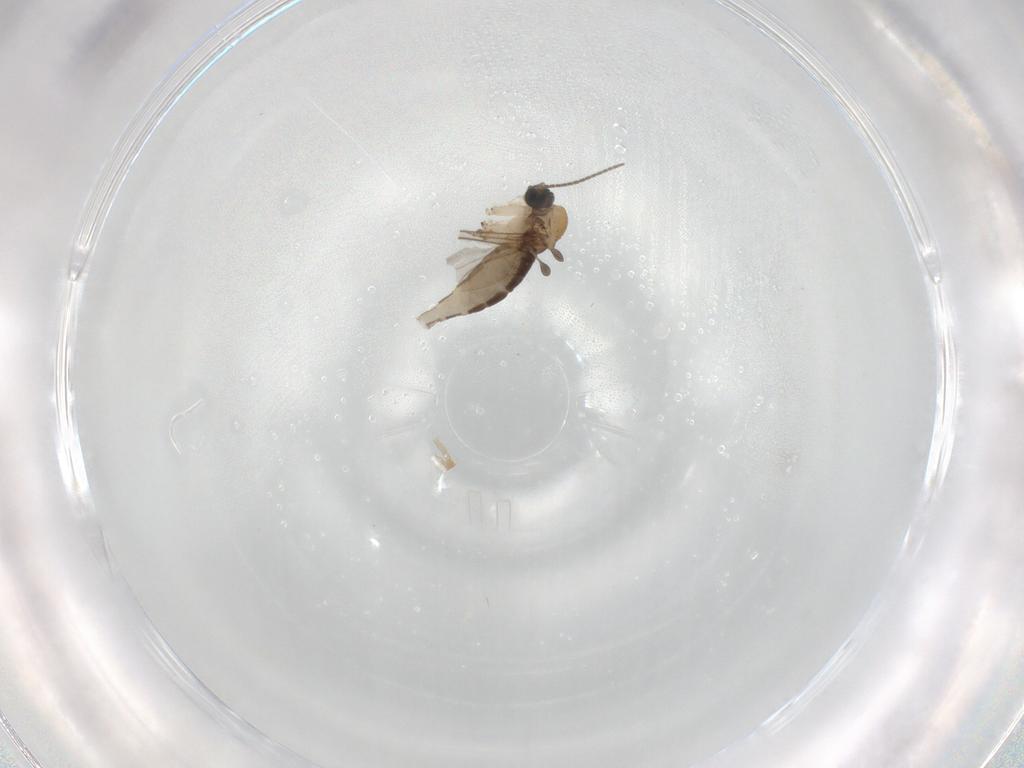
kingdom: Animalia
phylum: Arthropoda
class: Insecta
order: Diptera
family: Sciaridae
